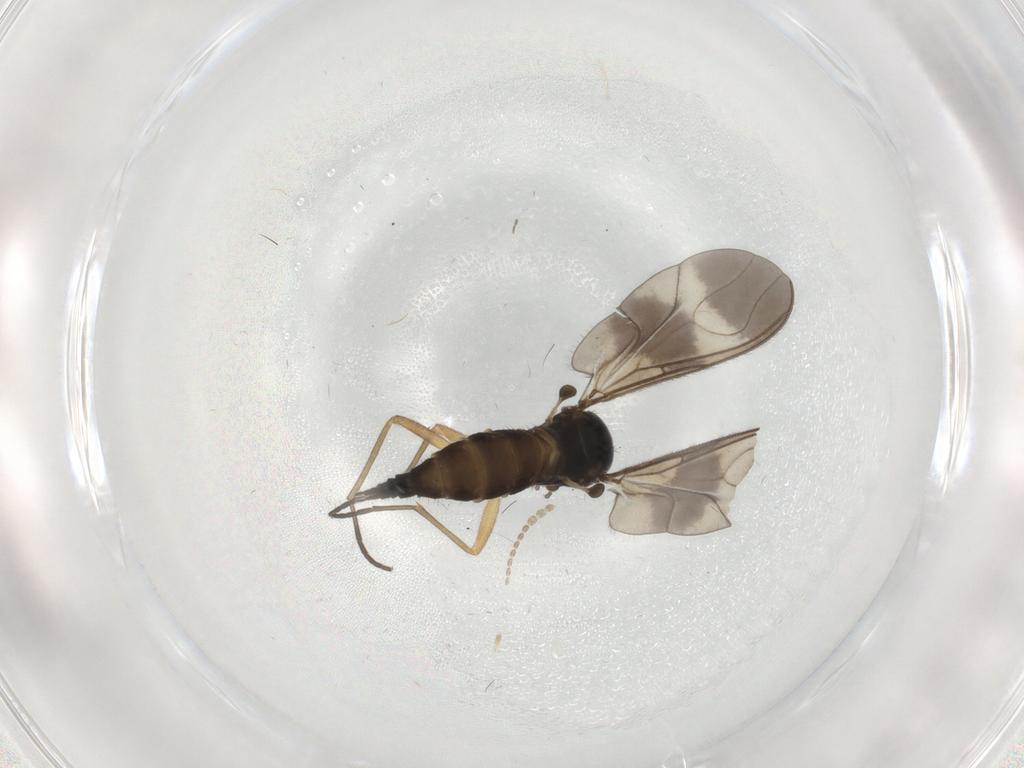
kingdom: Animalia
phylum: Arthropoda
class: Insecta
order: Diptera
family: Sciaridae
